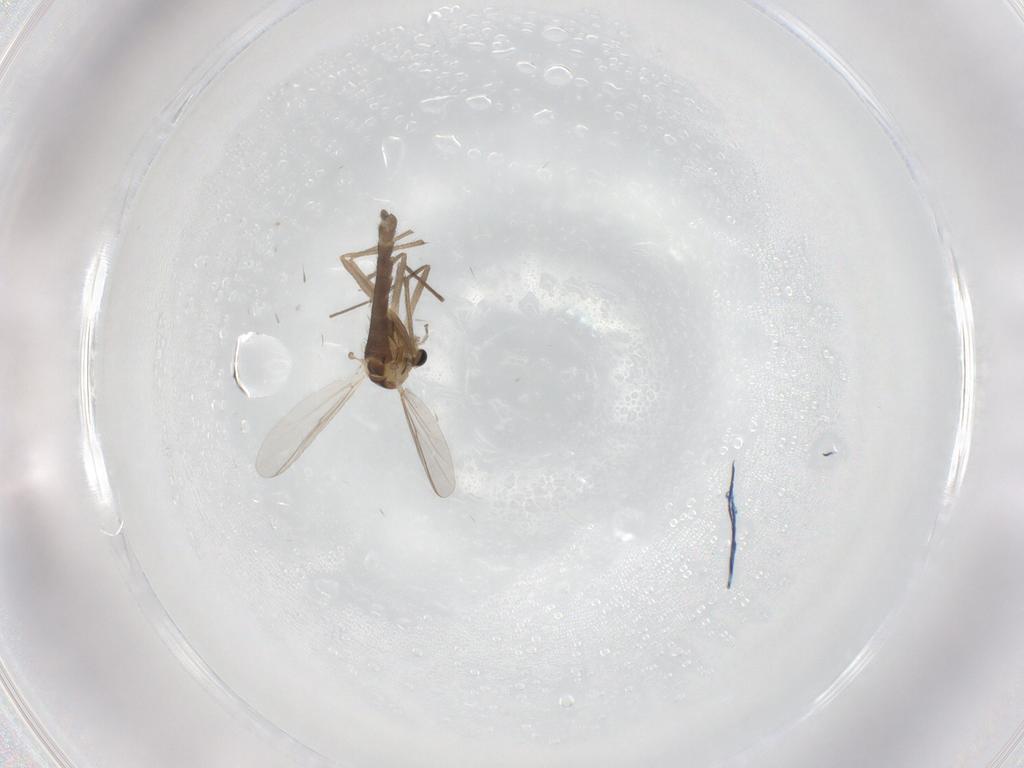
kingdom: Animalia
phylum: Arthropoda
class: Insecta
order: Diptera
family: Chironomidae
